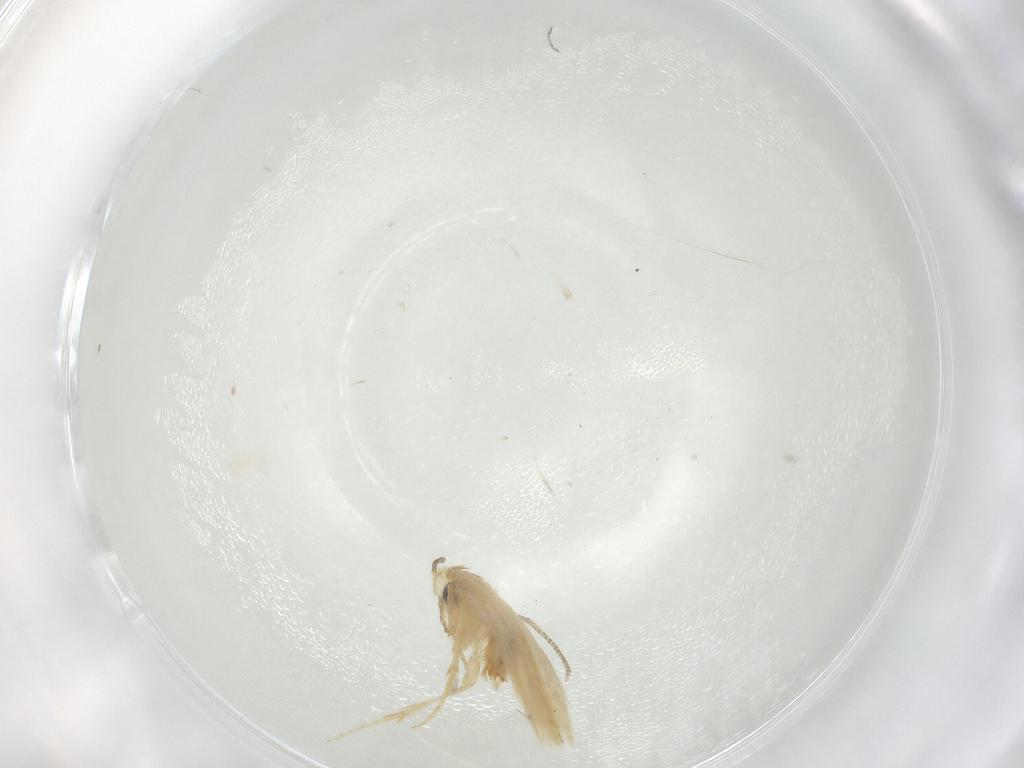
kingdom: Animalia
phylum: Arthropoda
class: Insecta
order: Lepidoptera
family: Nepticulidae
